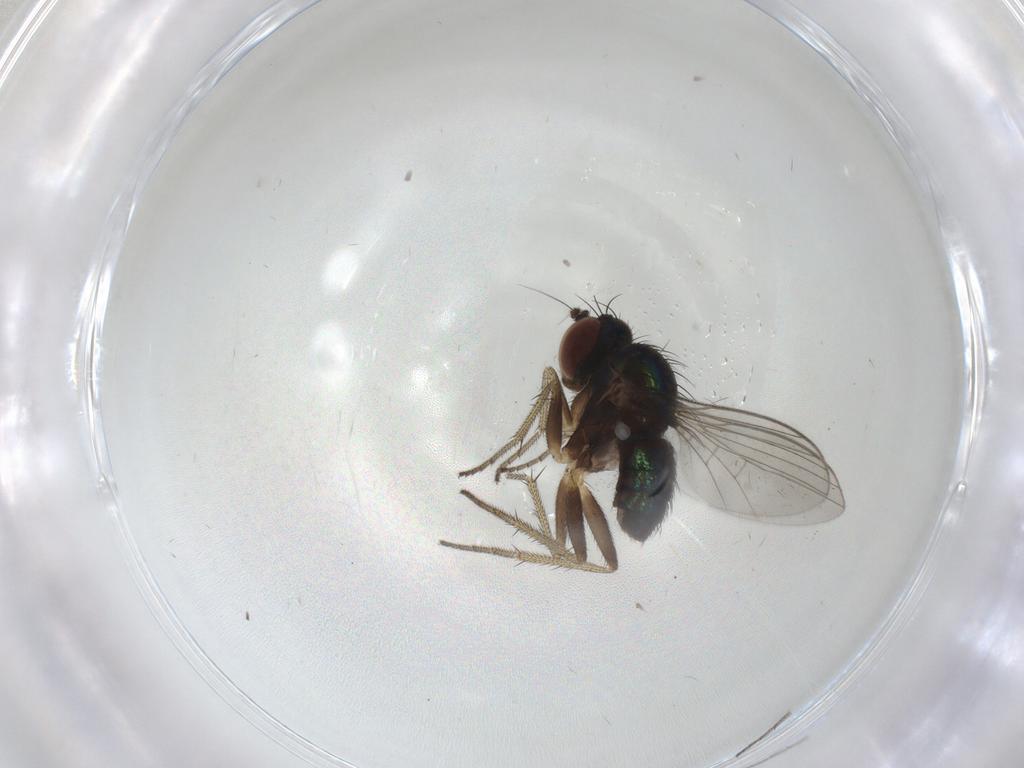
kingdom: Animalia
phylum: Arthropoda
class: Insecta
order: Diptera
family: Dolichopodidae
